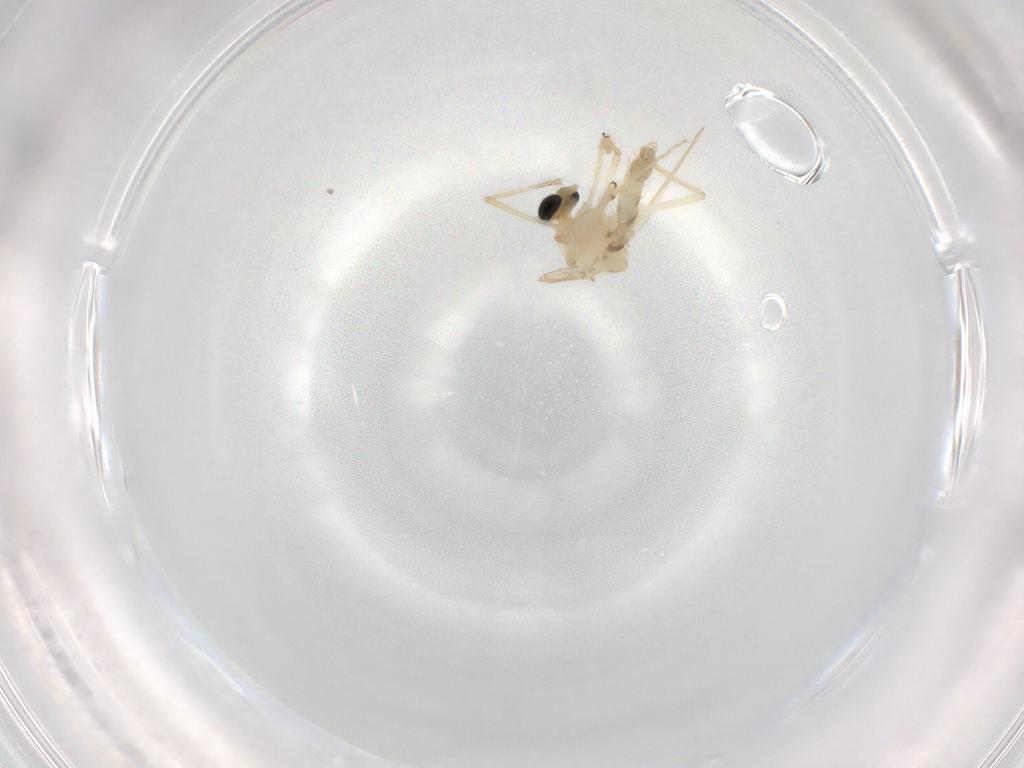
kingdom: Animalia
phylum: Arthropoda
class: Insecta
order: Diptera
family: Chironomidae
